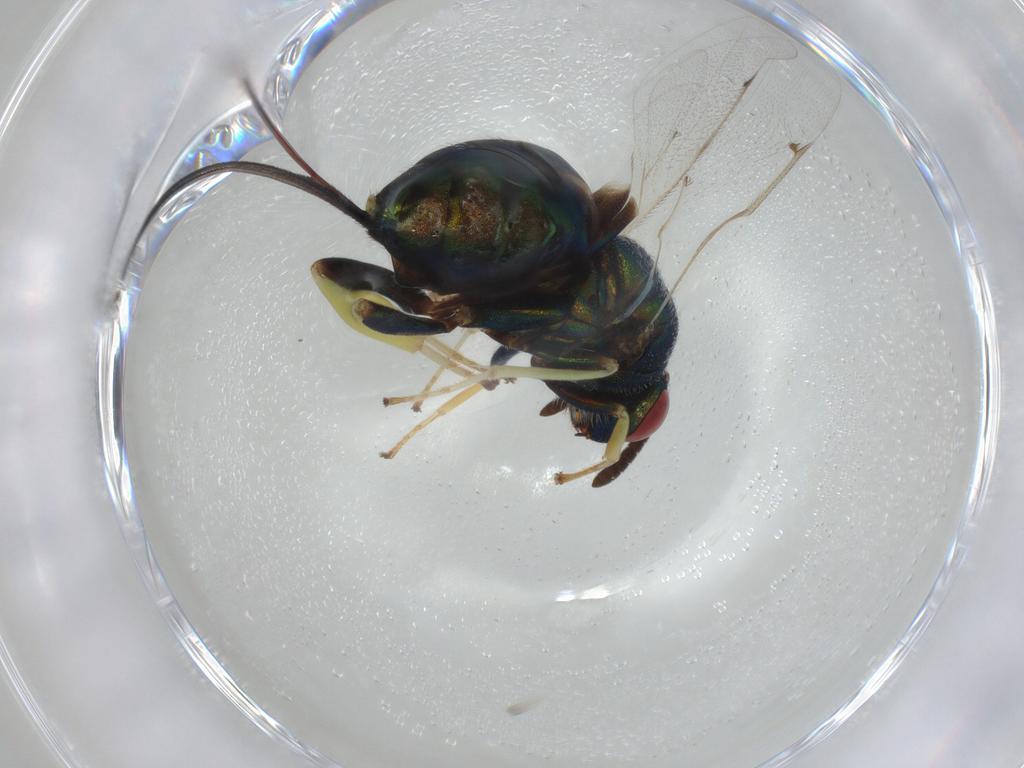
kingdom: Animalia
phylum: Arthropoda
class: Insecta
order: Hymenoptera
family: Torymidae
